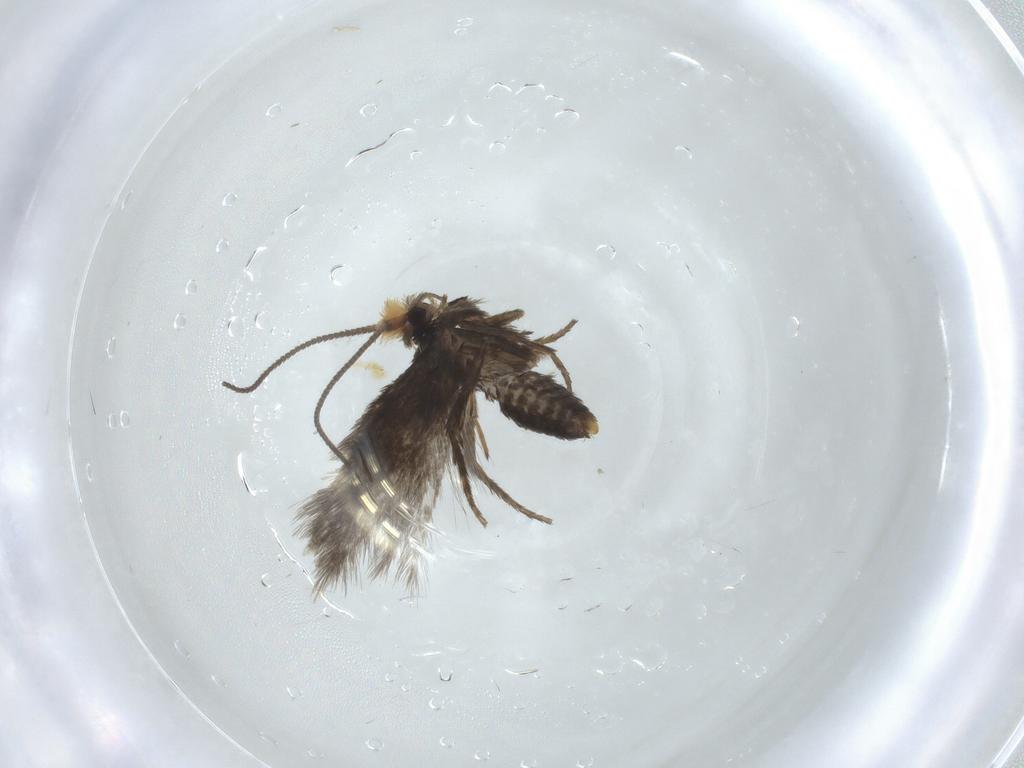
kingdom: Animalia
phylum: Arthropoda
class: Insecta
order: Lepidoptera
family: Nepticulidae
